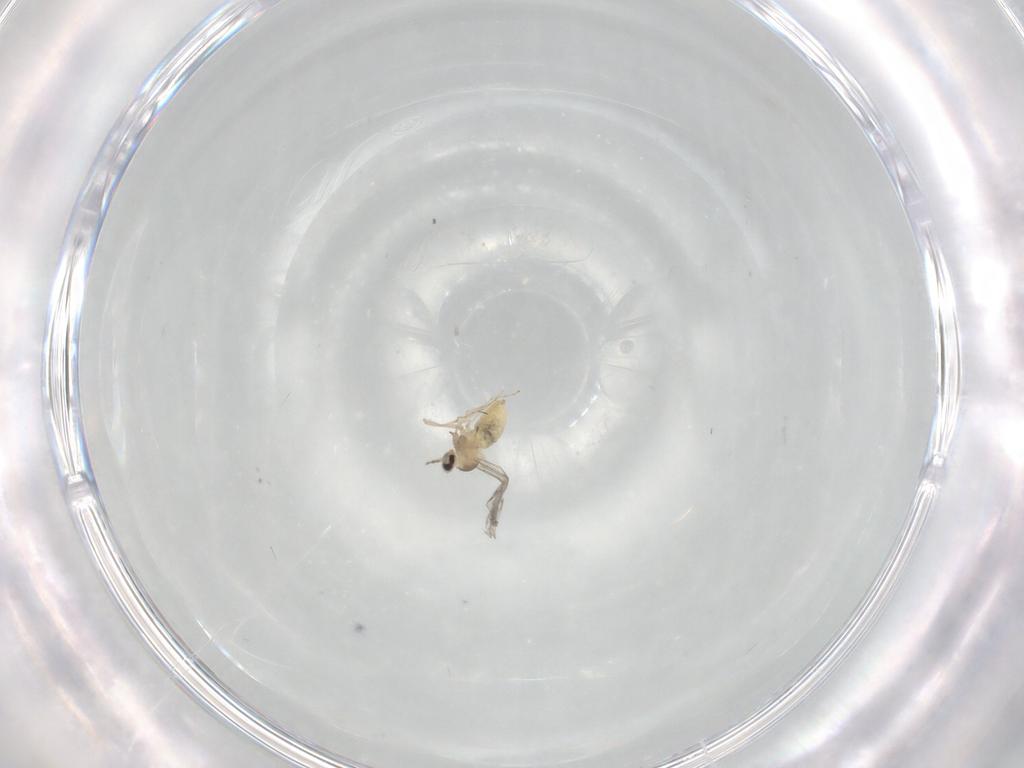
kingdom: Animalia
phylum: Arthropoda
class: Insecta
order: Diptera
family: Cecidomyiidae
